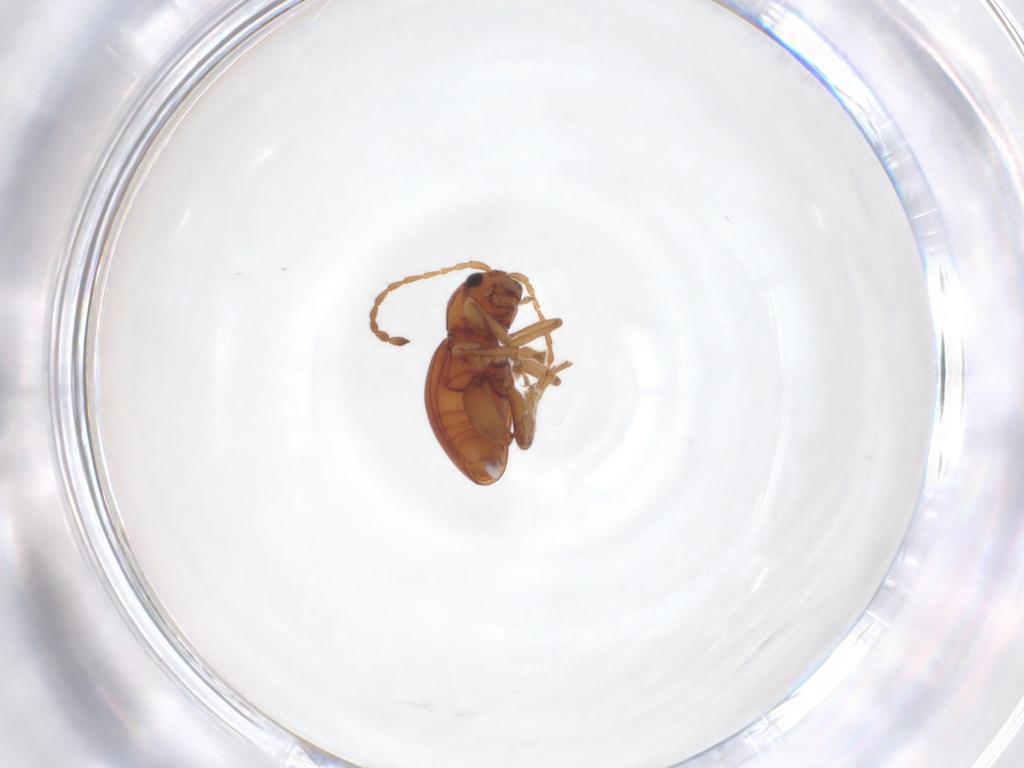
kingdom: Animalia
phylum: Arthropoda
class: Insecta
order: Coleoptera
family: Chrysomelidae
